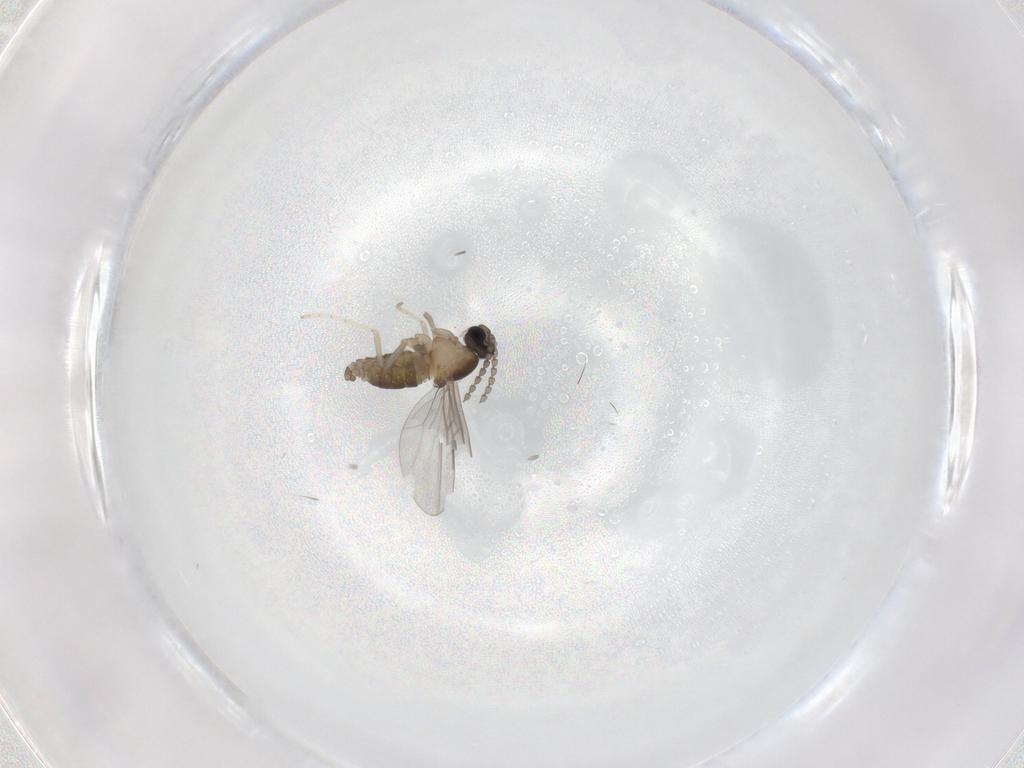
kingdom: Animalia
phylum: Arthropoda
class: Insecta
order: Diptera
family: Cecidomyiidae
